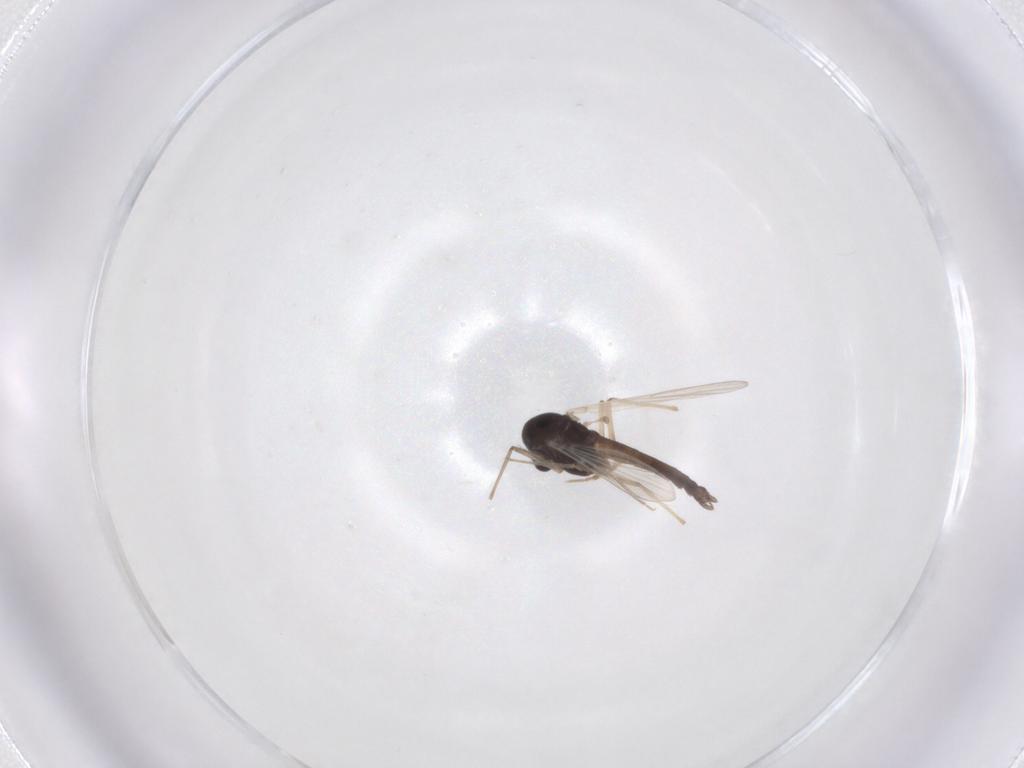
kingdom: Animalia
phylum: Arthropoda
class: Insecta
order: Diptera
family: Chironomidae
